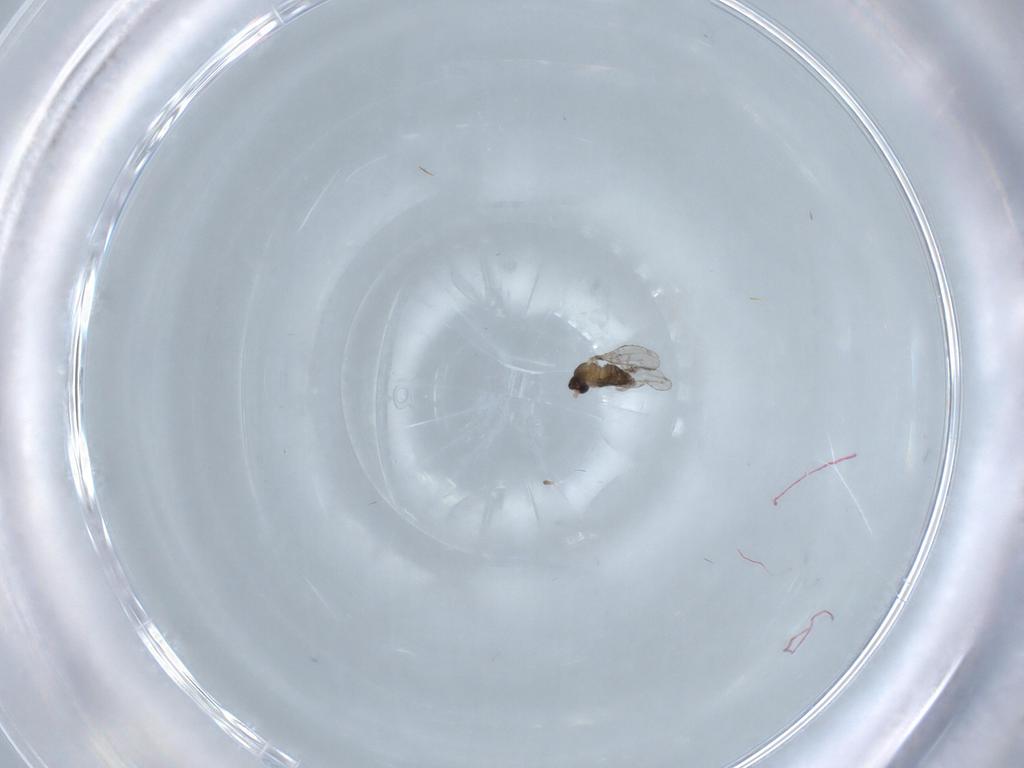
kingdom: Animalia
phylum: Arthropoda
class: Insecta
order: Diptera
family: Cecidomyiidae
